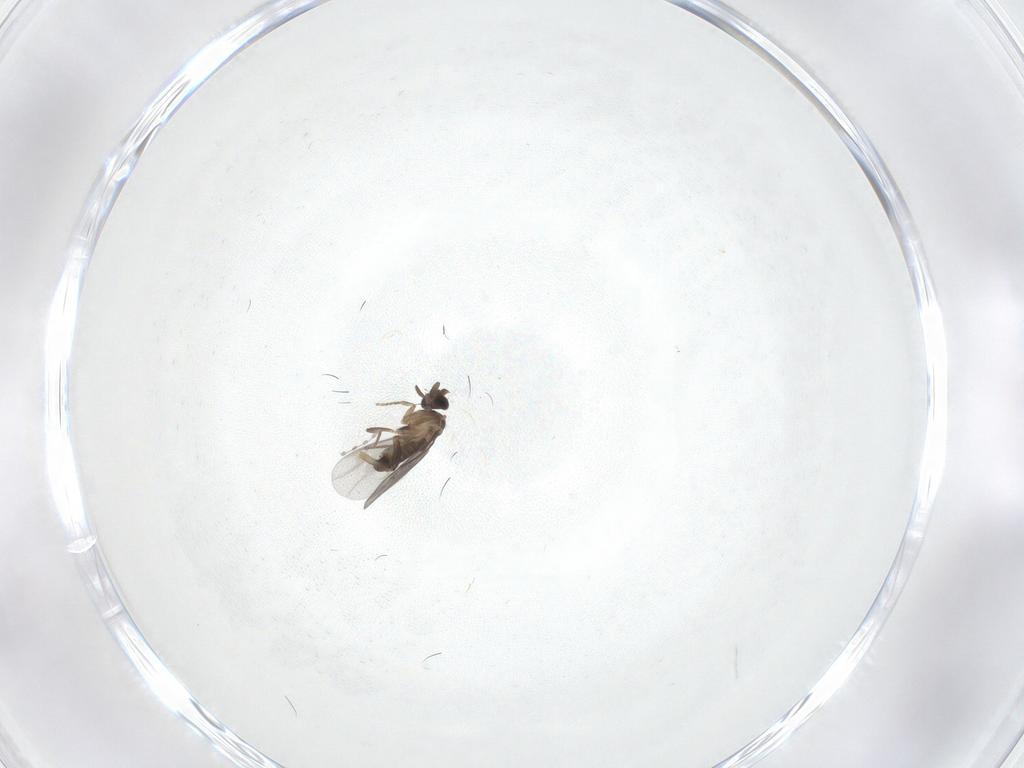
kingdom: Animalia
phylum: Arthropoda
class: Insecta
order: Diptera
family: Chironomidae
